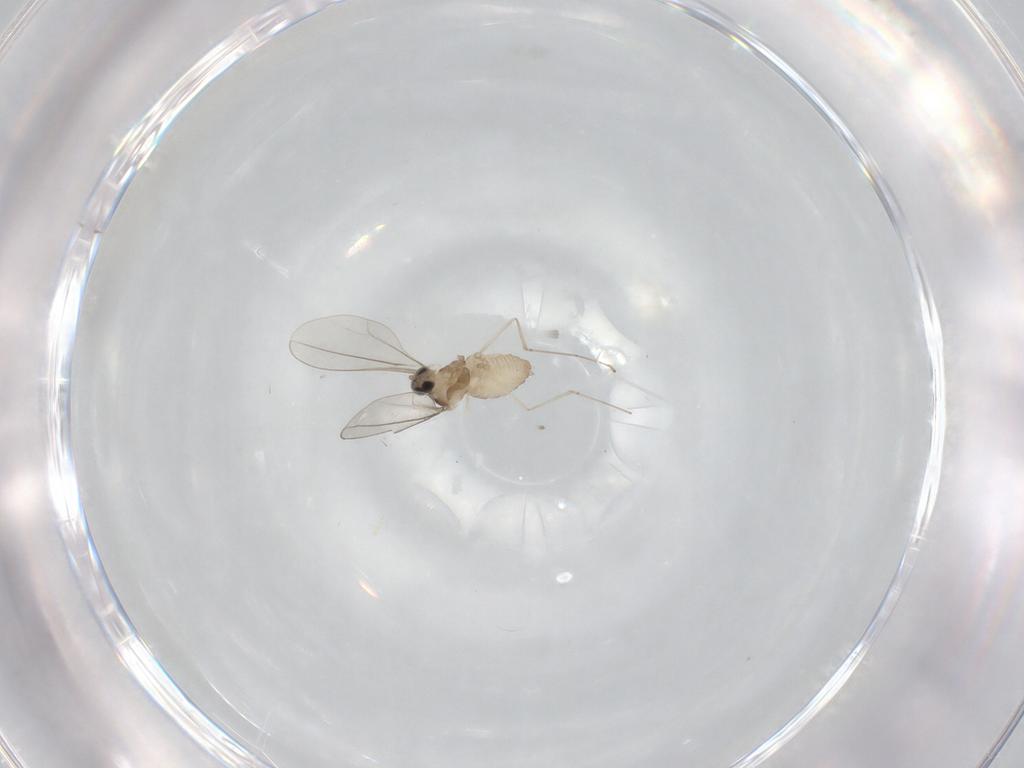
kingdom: Animalia
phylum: Arthropoda
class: Insecta
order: Diptera
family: Cecidomyiidae
